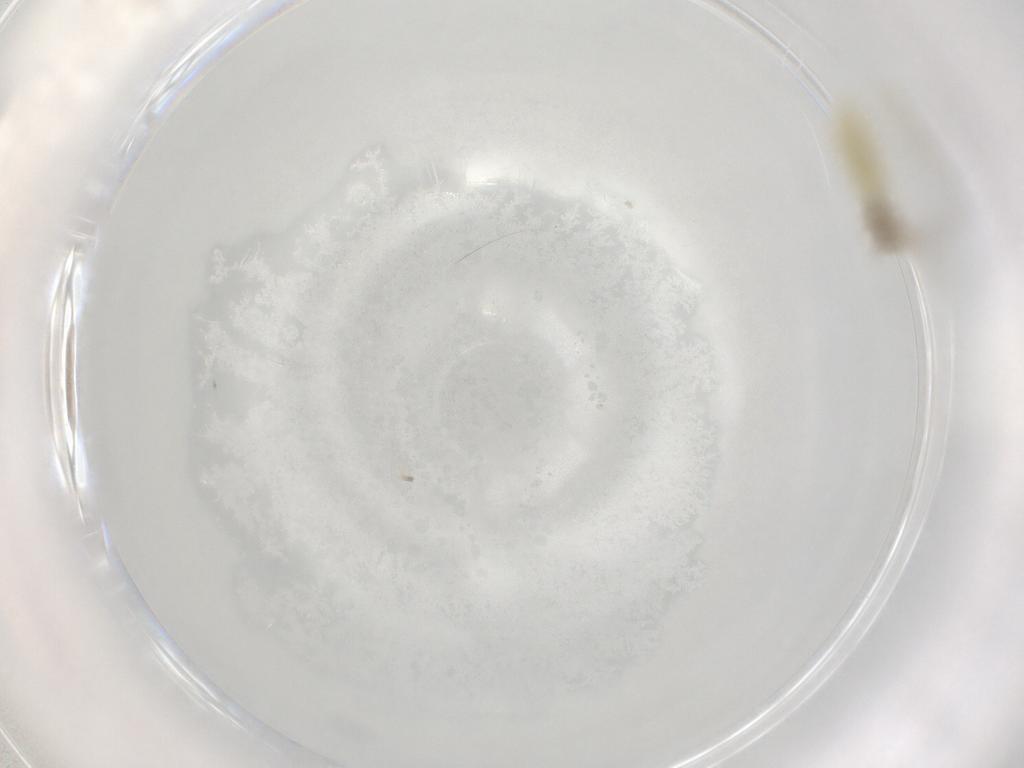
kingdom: Animalia
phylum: Arthropoda
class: Insecta
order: Diptera
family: Chironomidae
